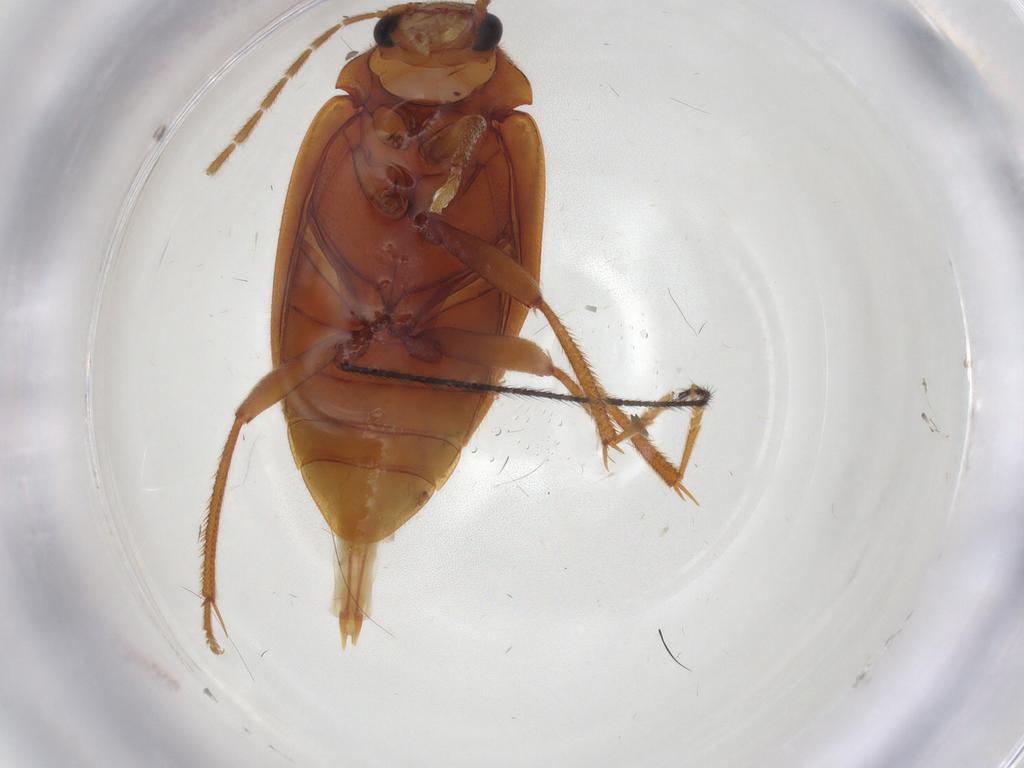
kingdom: Animalia
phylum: Arthropoda
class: Insecta
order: Coleoptera
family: Ptilodactylidae
